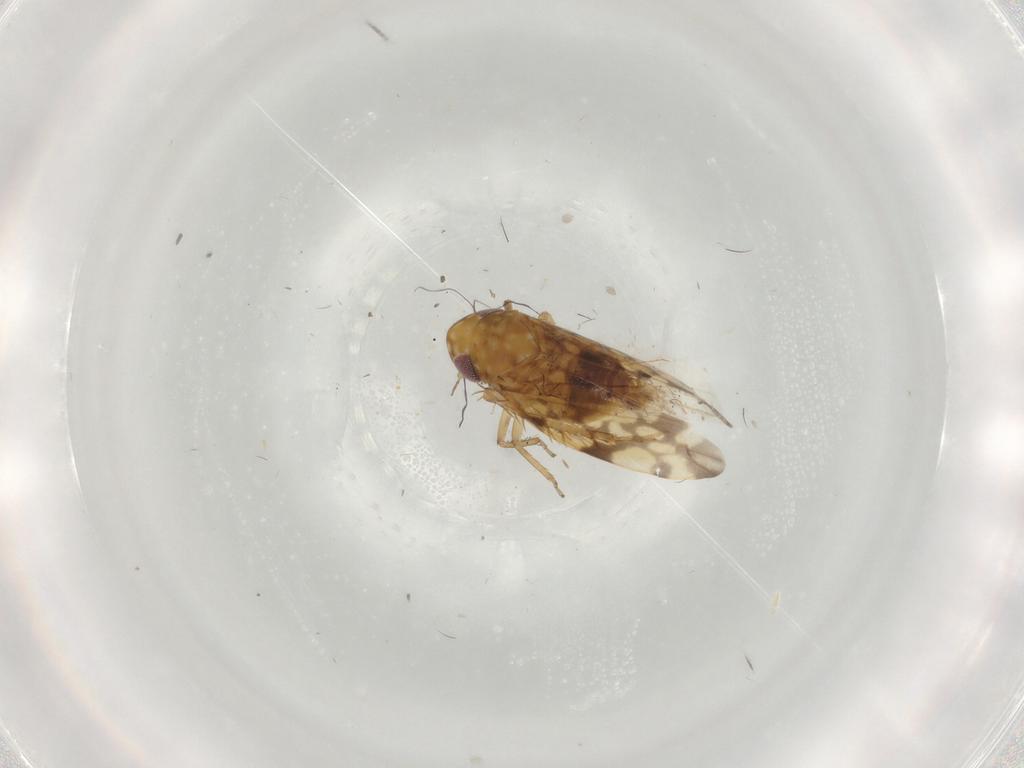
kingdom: Animalia
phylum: Arthropoda
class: Insecta
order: Hemiptera
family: Cicadellidae
